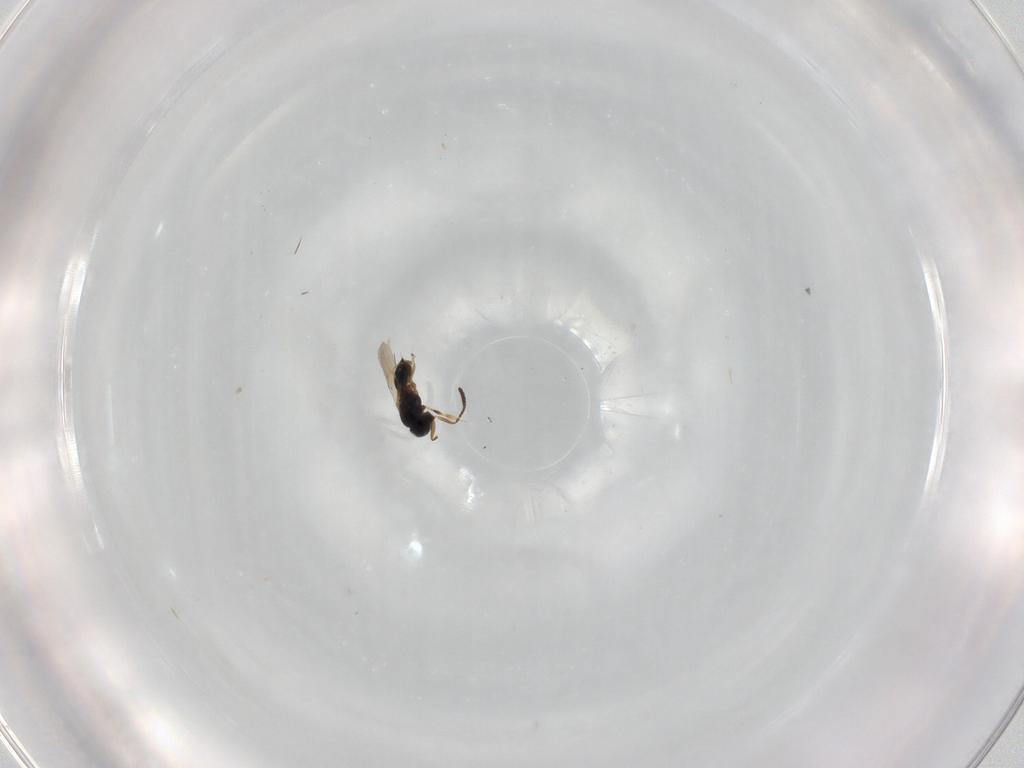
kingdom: Animalia
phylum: Arthropoda
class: Insecta
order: Hymenoptera
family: Scelionidae
